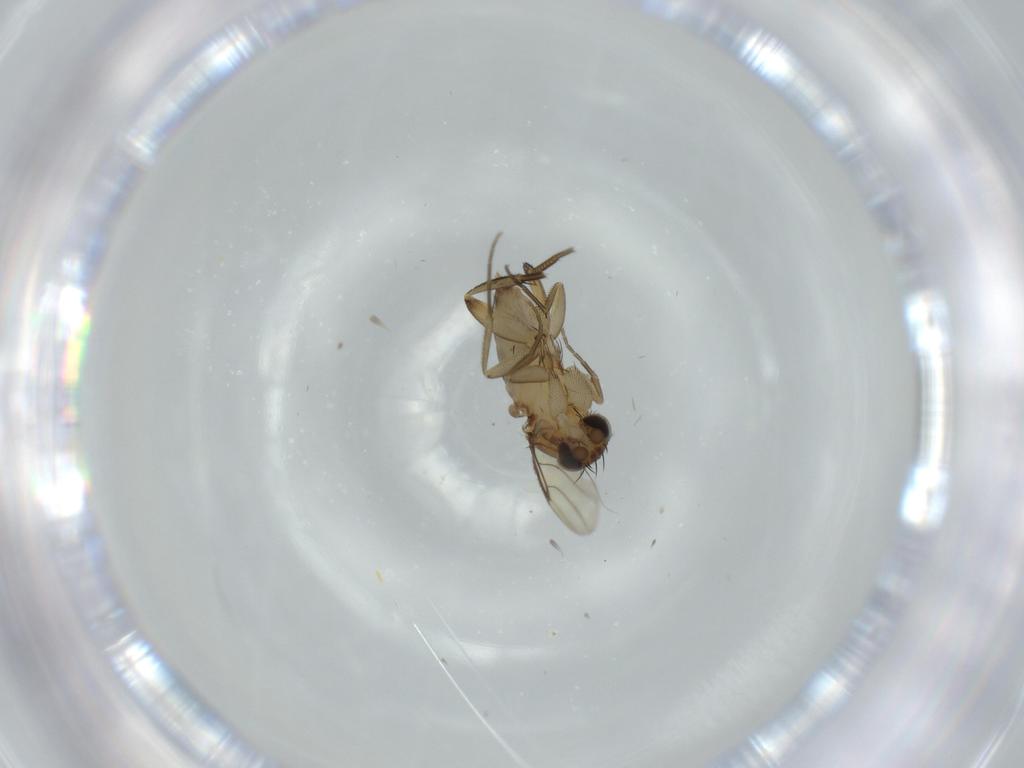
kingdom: Animalia
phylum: Arthropoda
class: Insecta
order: Diptera
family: Phoridae
